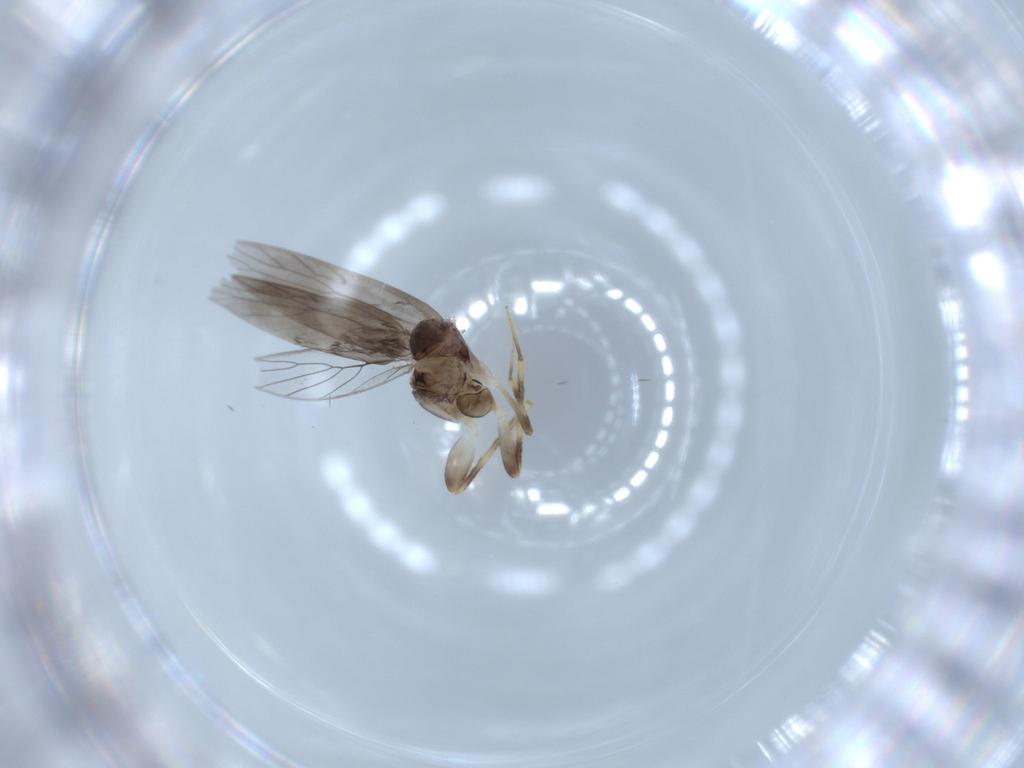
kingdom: Animalia
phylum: Arthropoda
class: Insecta
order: Psocodea
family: Lepidopsocidae
